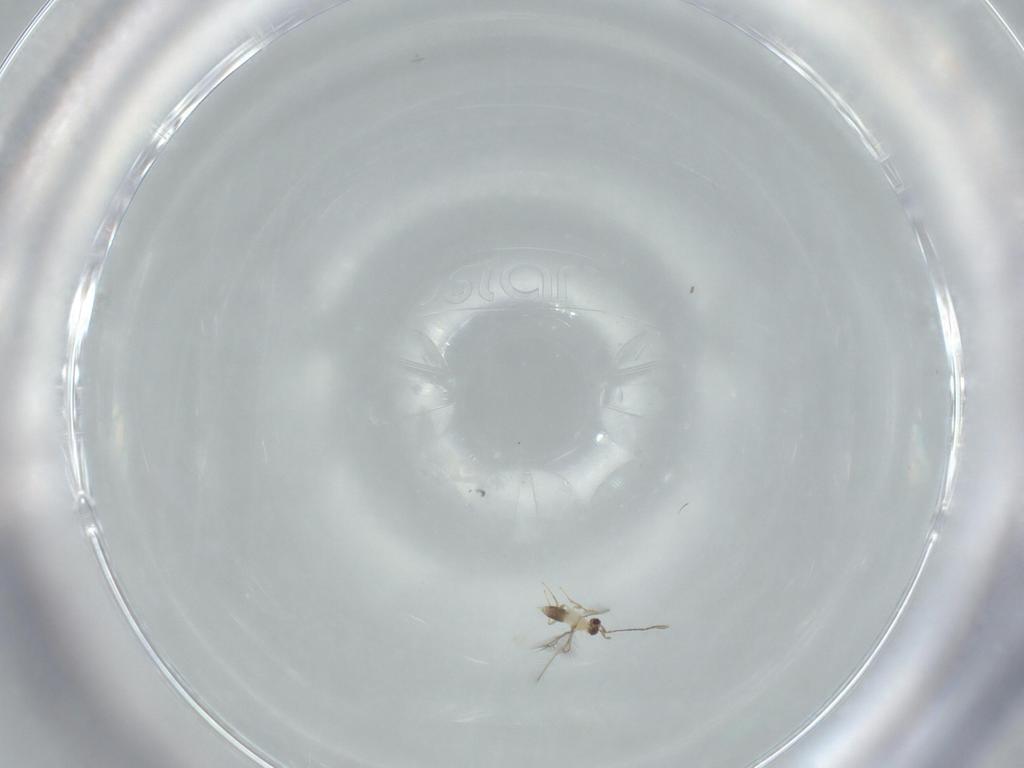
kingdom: Animalia
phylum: Arthropoda
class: Insecta
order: Hymenoptera
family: Mymaridae
